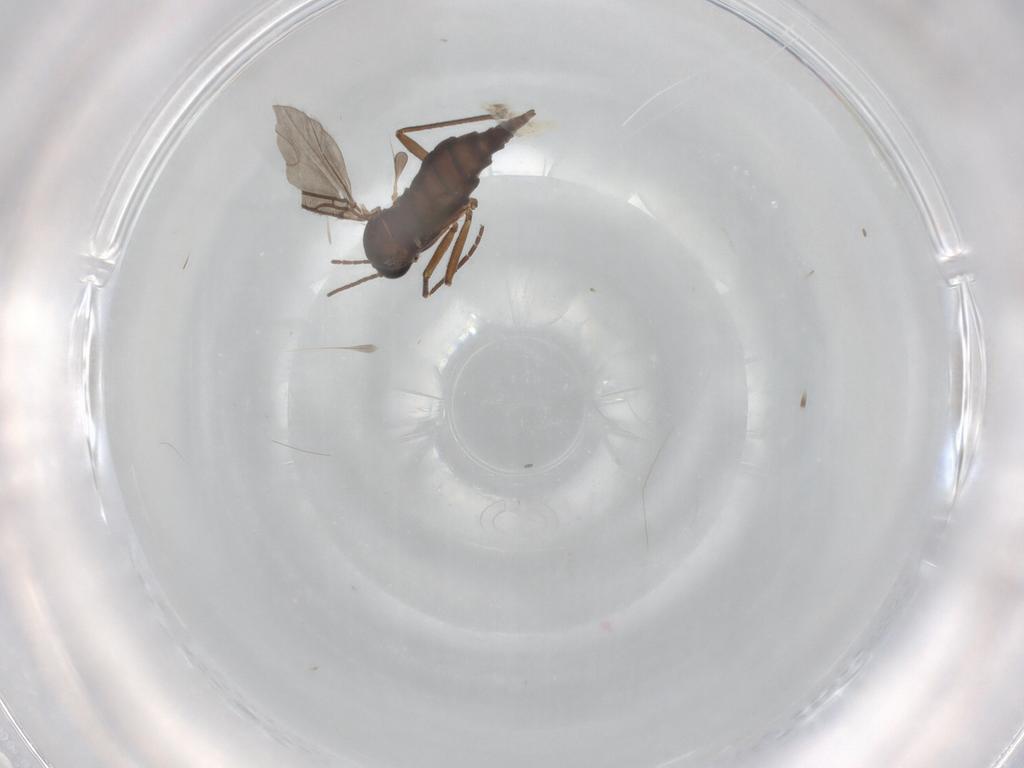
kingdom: Animalia
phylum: Arthropoda
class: Insecta
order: Diptera
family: Sciaridae
